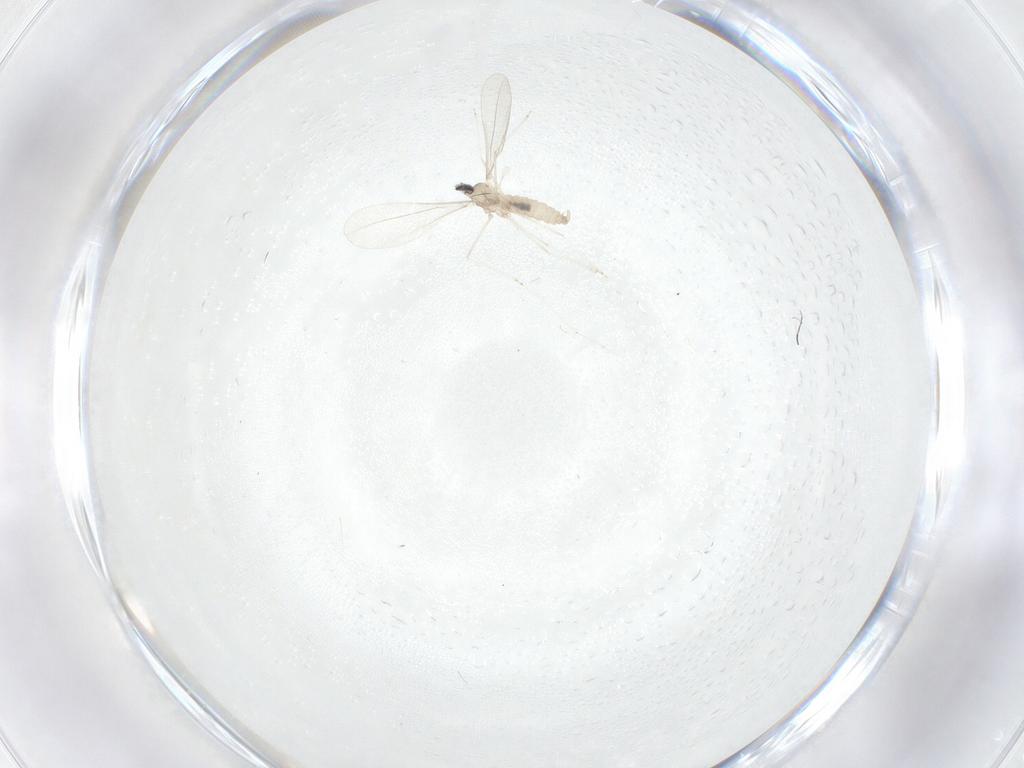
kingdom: Animalia
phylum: Arthropoda
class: Insecta
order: Diptera
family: Cecidomyiidae
